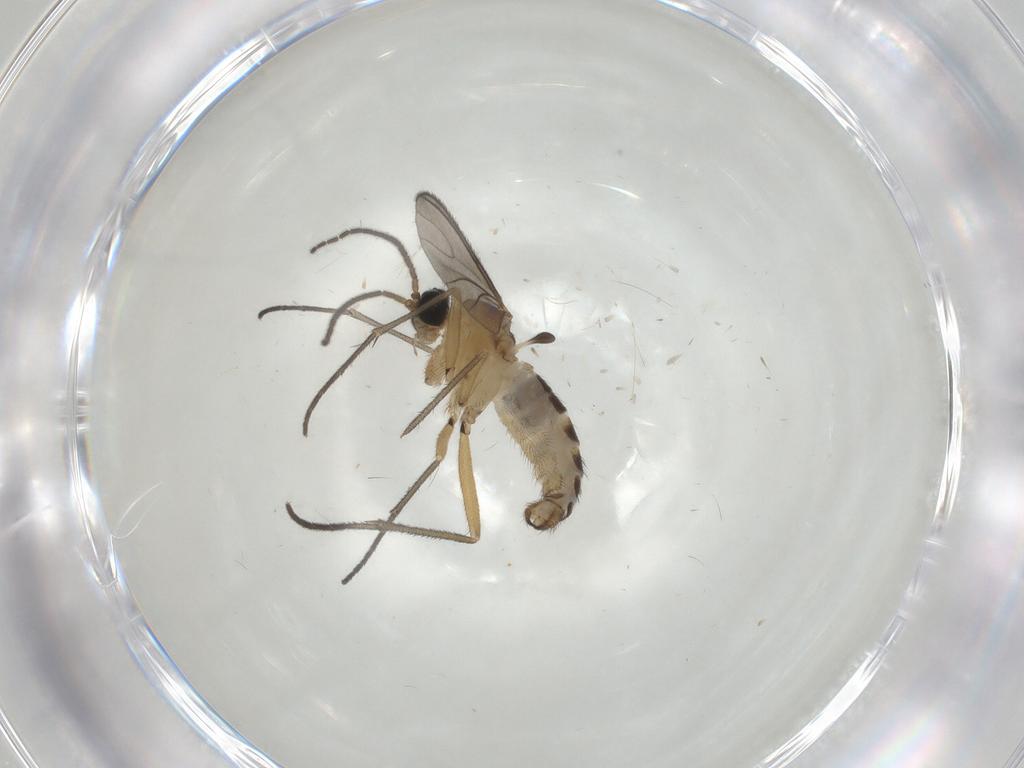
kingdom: Animalia
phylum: Arthropoda
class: Insecta
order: Diptera
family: Sciaridae
